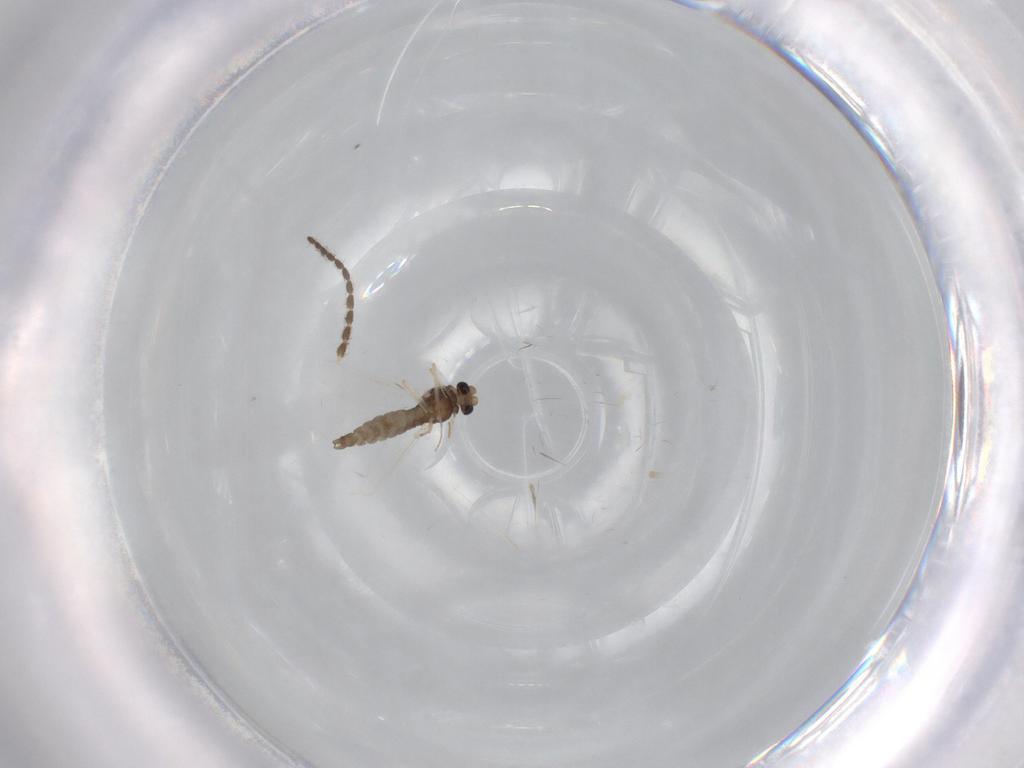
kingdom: Animalia
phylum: Arthropoda
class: Insecta
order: Diptera
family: Chironomidae
